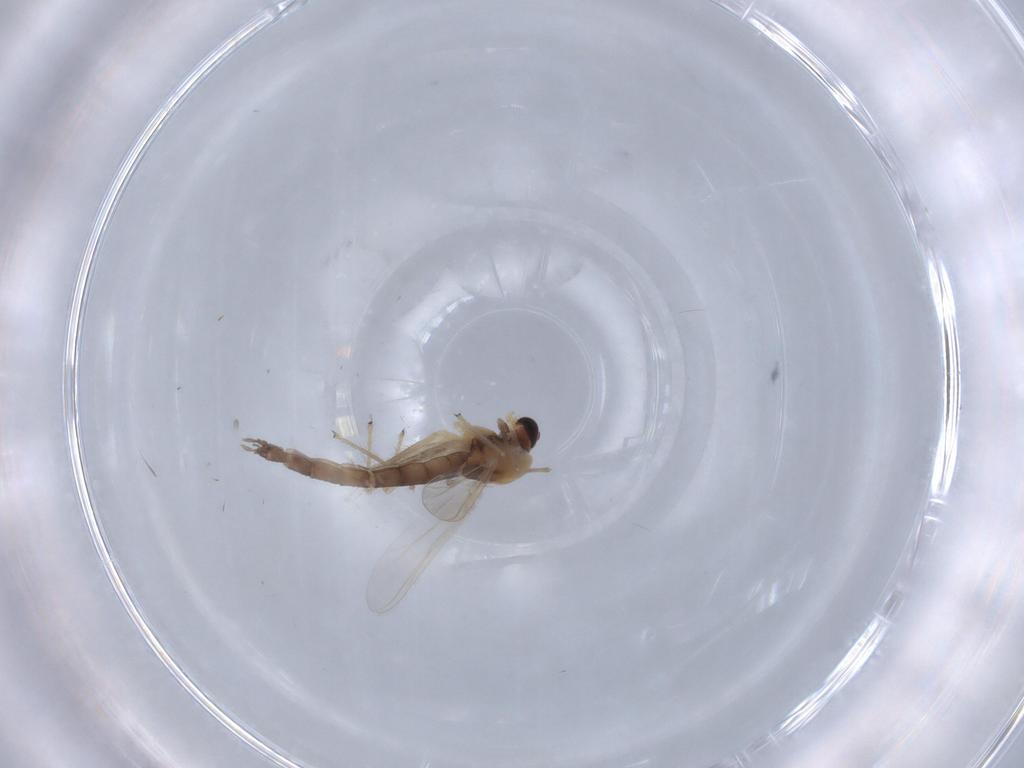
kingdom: Animalia
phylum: Arthropoda
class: Insecta
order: Diptera
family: Chironomidae
